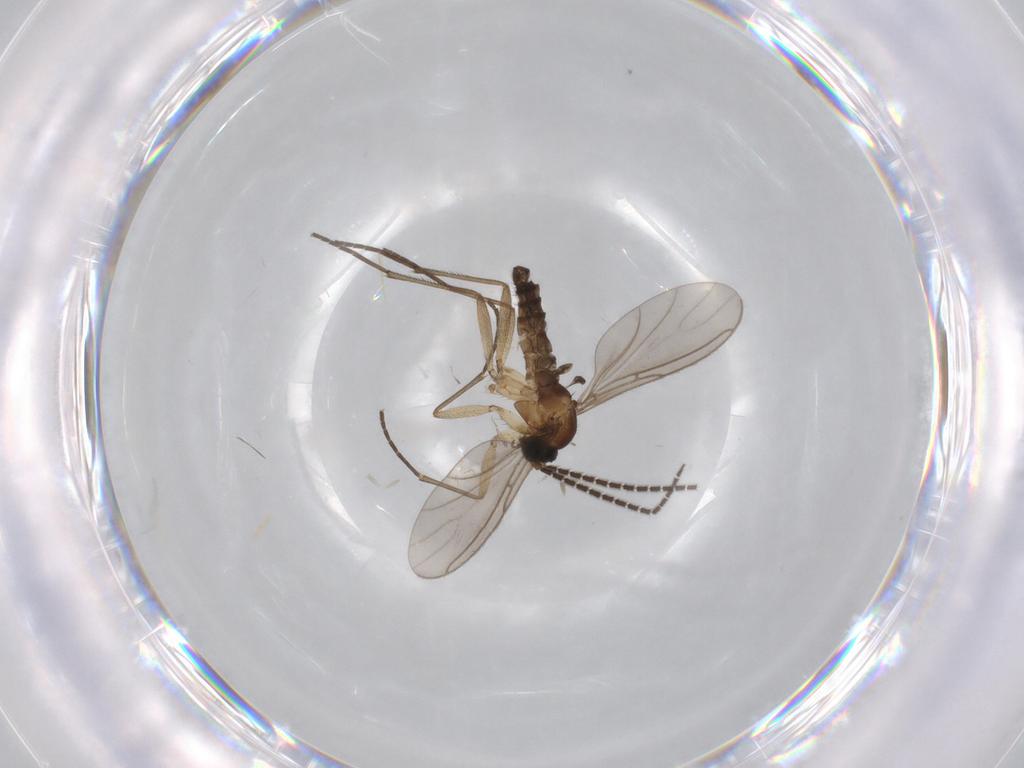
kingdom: Animalia
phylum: Arthropoda
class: Insecta
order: Diptera
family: Sciaridae
